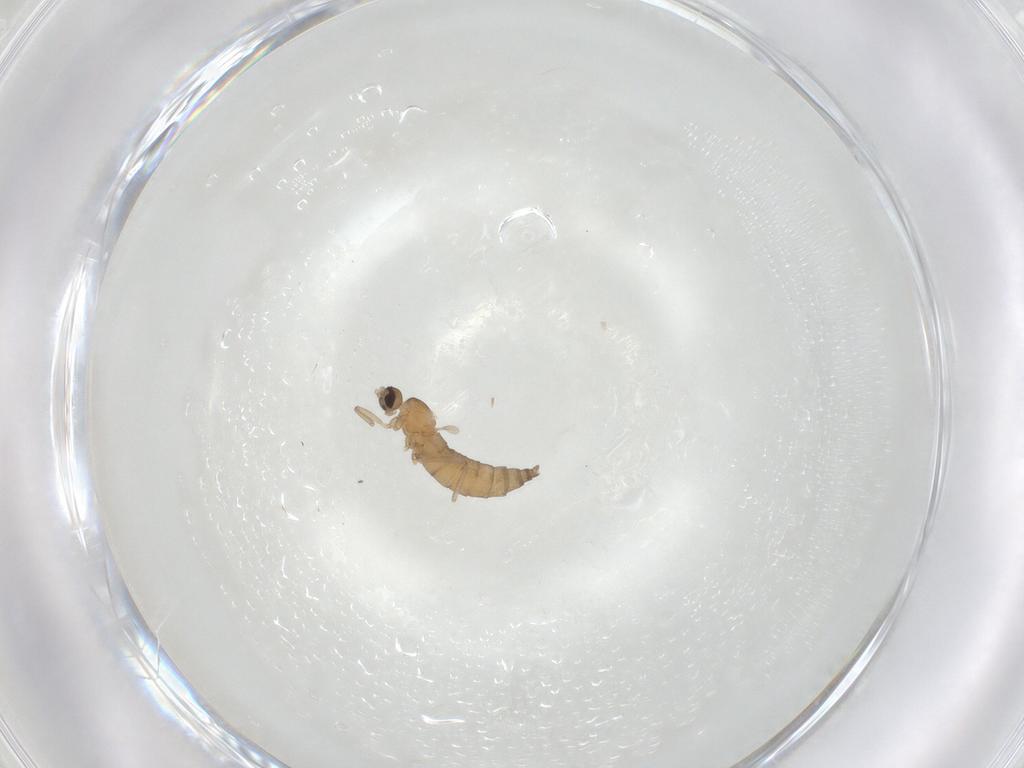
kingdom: Animalia
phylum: Arthropoda
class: Insecta
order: Diptera
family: Cecidomyiidae
